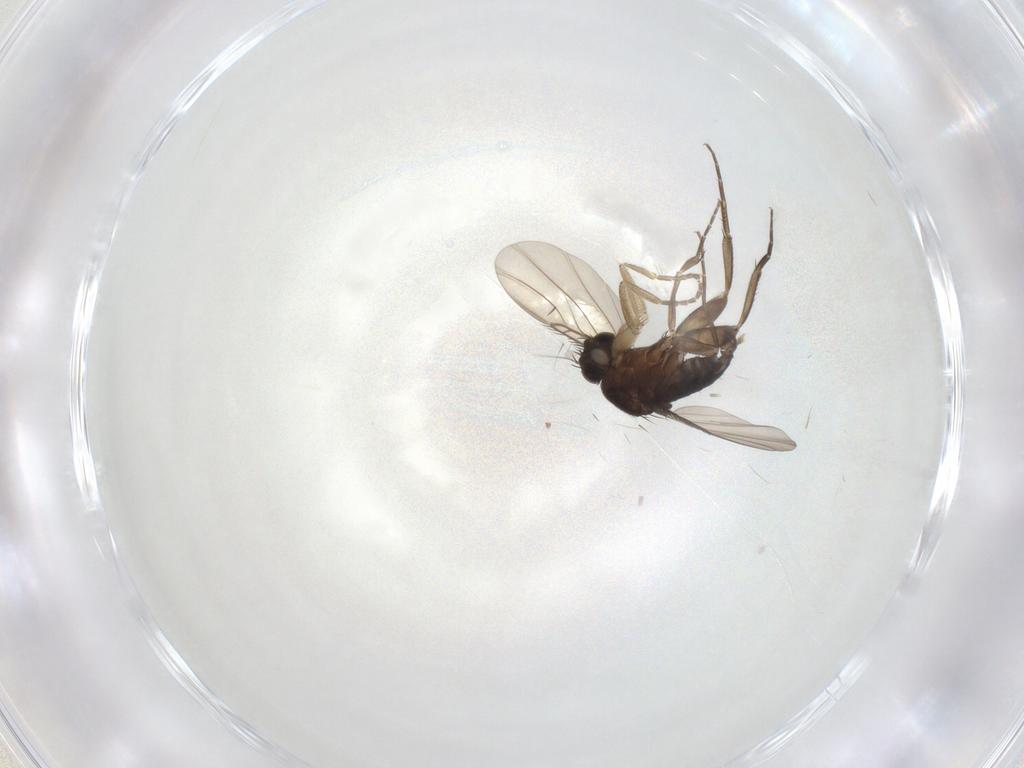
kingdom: Animalia
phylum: Arthropoda
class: Insecta
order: Diptera
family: Phoridae
